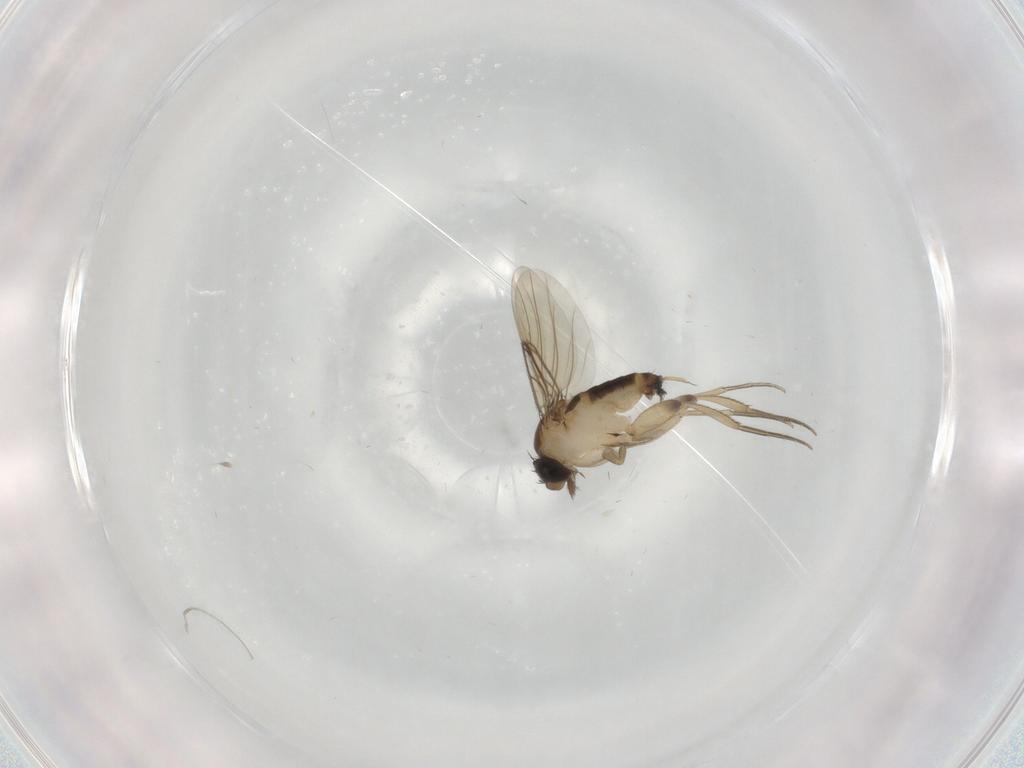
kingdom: Animalia
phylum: Arthropoda
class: Insecta
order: Diptera
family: Phoridae
